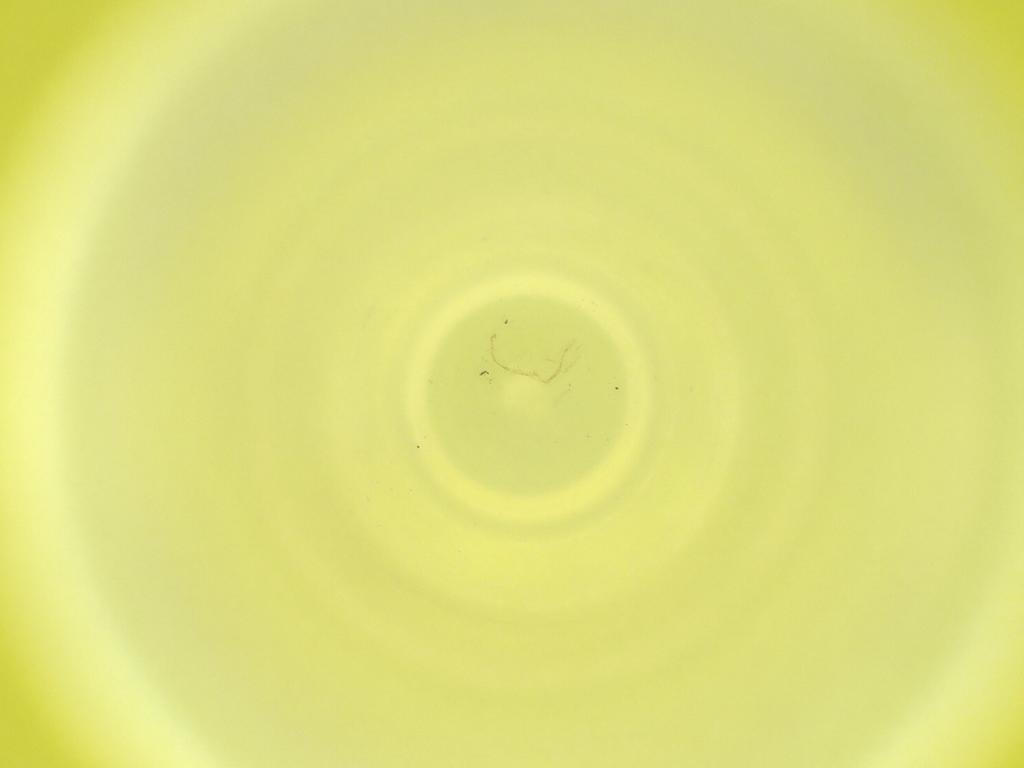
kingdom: Animalia
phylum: Arthropoda
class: Insecta
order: Diptera
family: Cecidomyiidae
